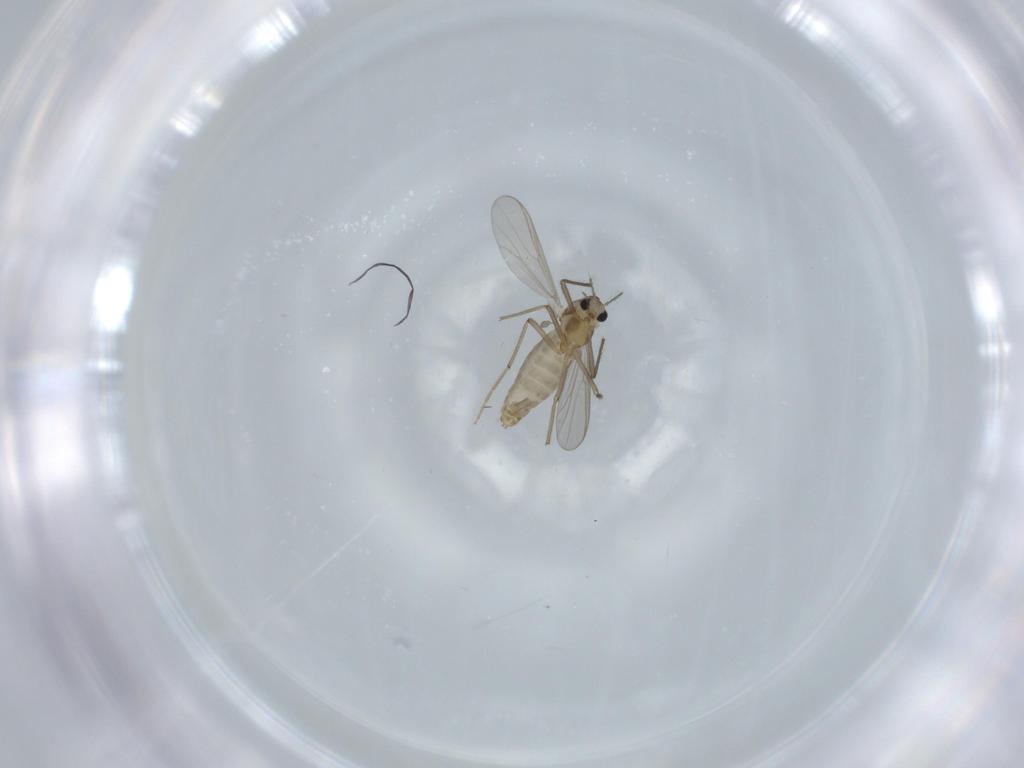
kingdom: Animalia
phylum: Arthropoda
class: Insecta
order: Diptera
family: Chironomidae
